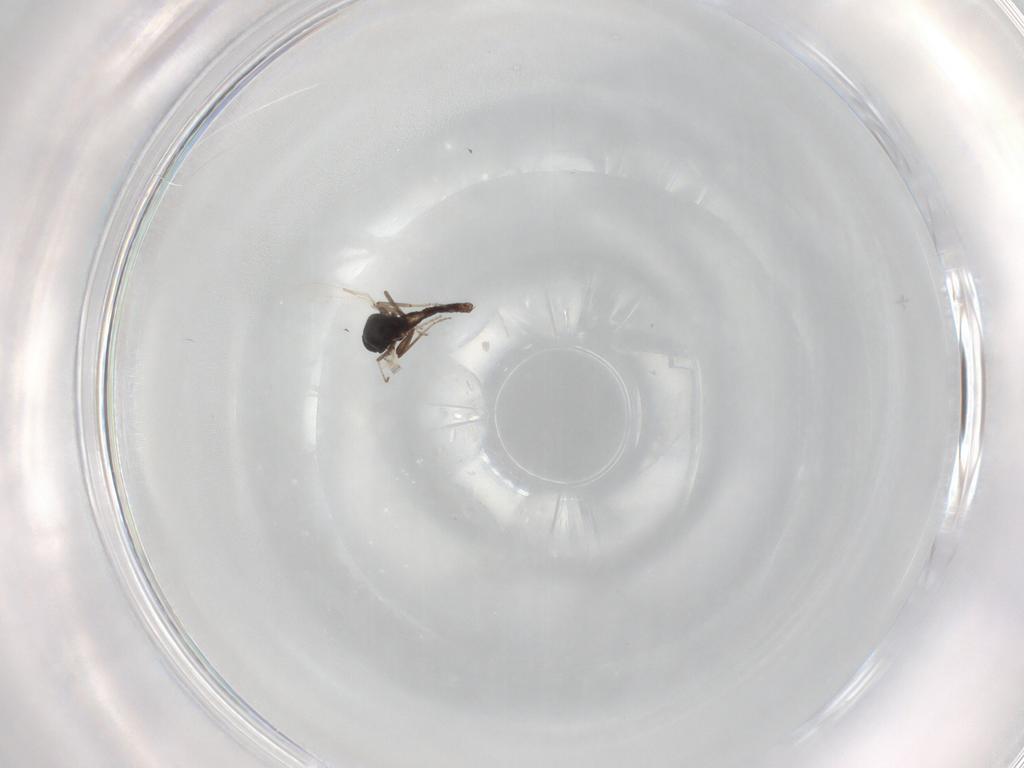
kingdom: Animalia
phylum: Arthropoda
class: Insecta
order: Diptera
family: Ceratopogonidae
